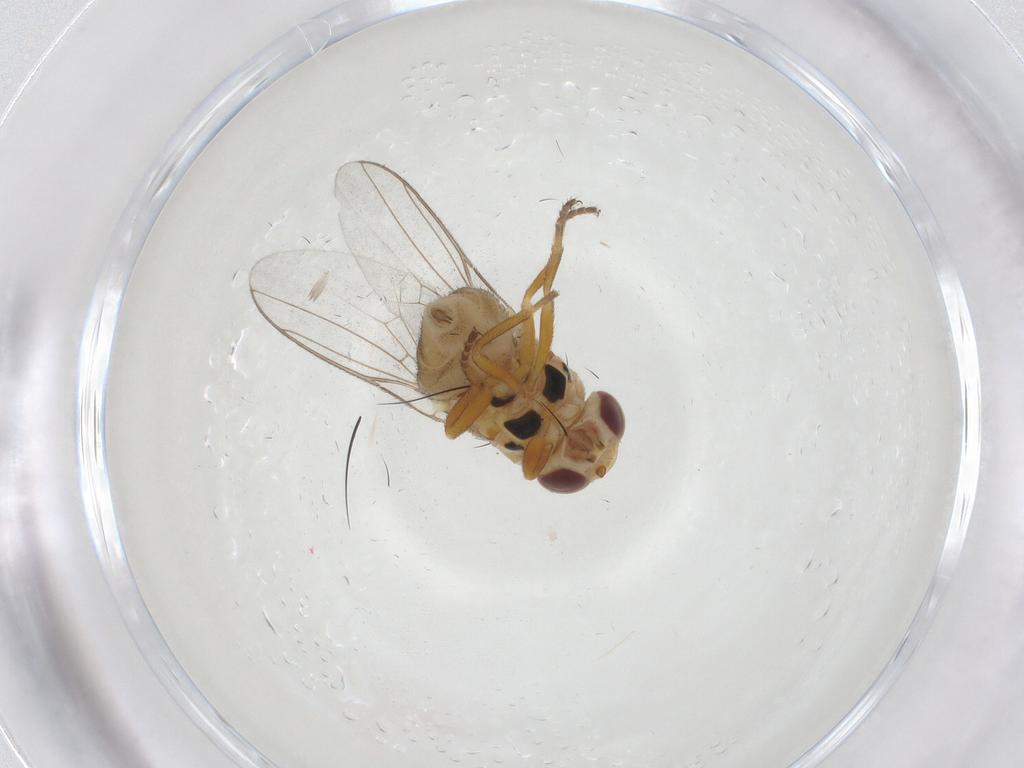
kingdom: Animalia
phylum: Arthropoda
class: Insecta
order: Diptera
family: Chloropidae
